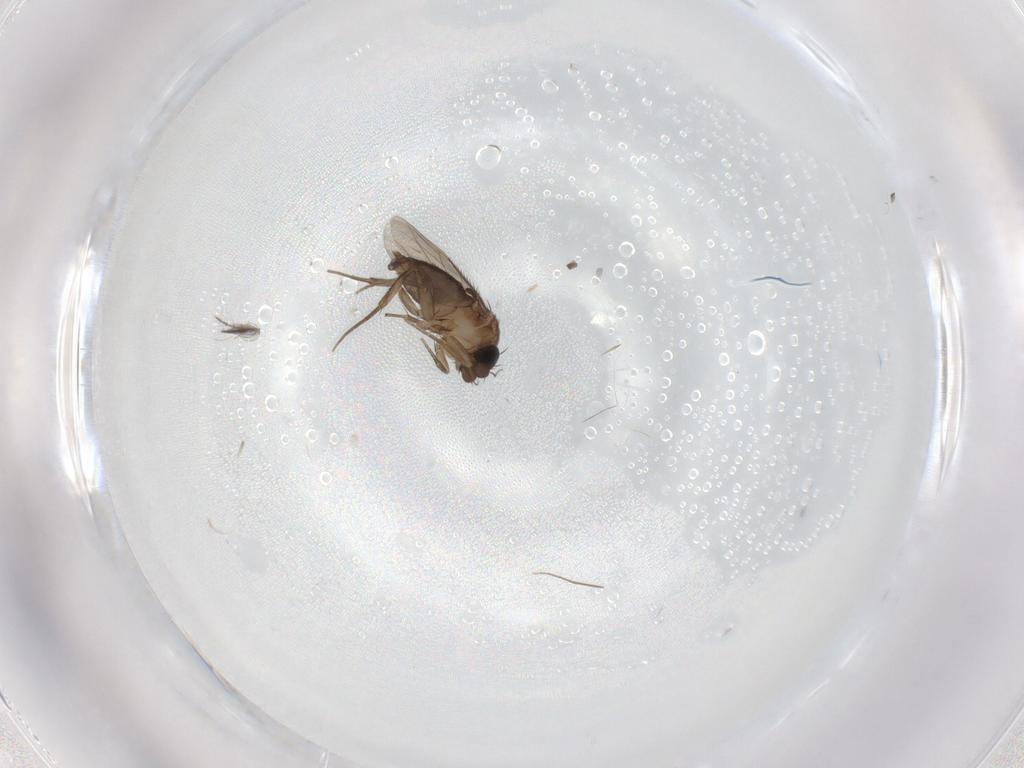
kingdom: Animalia
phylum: Arthropoda
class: Insecta
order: Diptera
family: Phoridae
